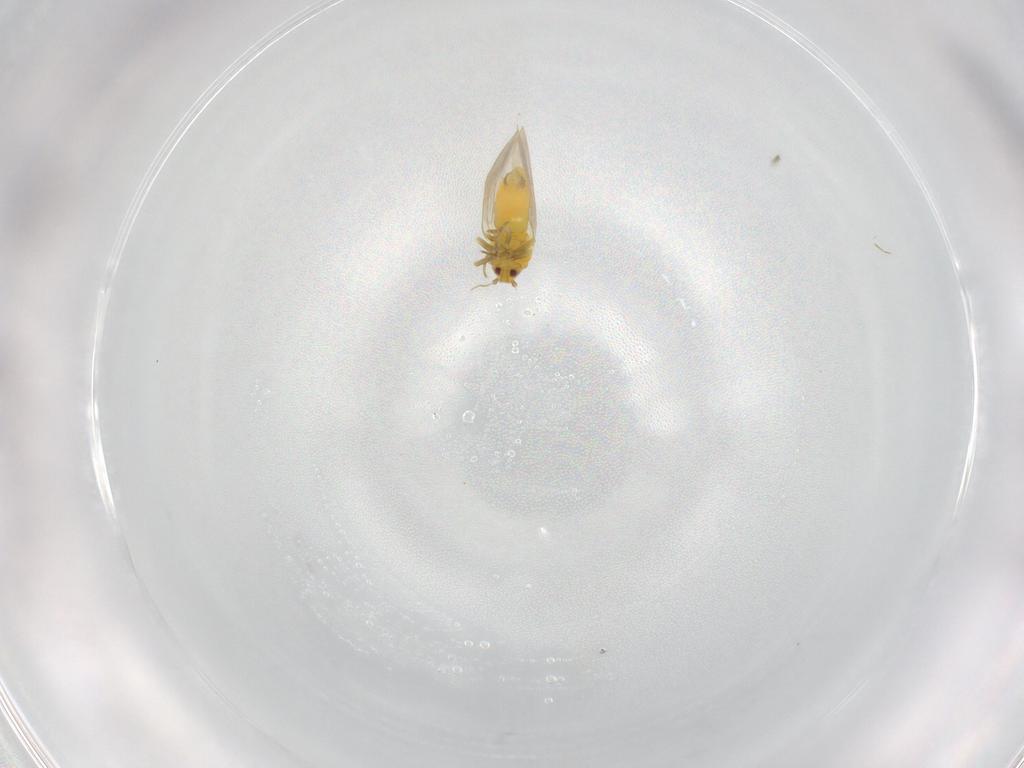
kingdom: Animalia
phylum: Arthropoda
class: Insecta
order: Hemiptera
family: Aleyrodidae
